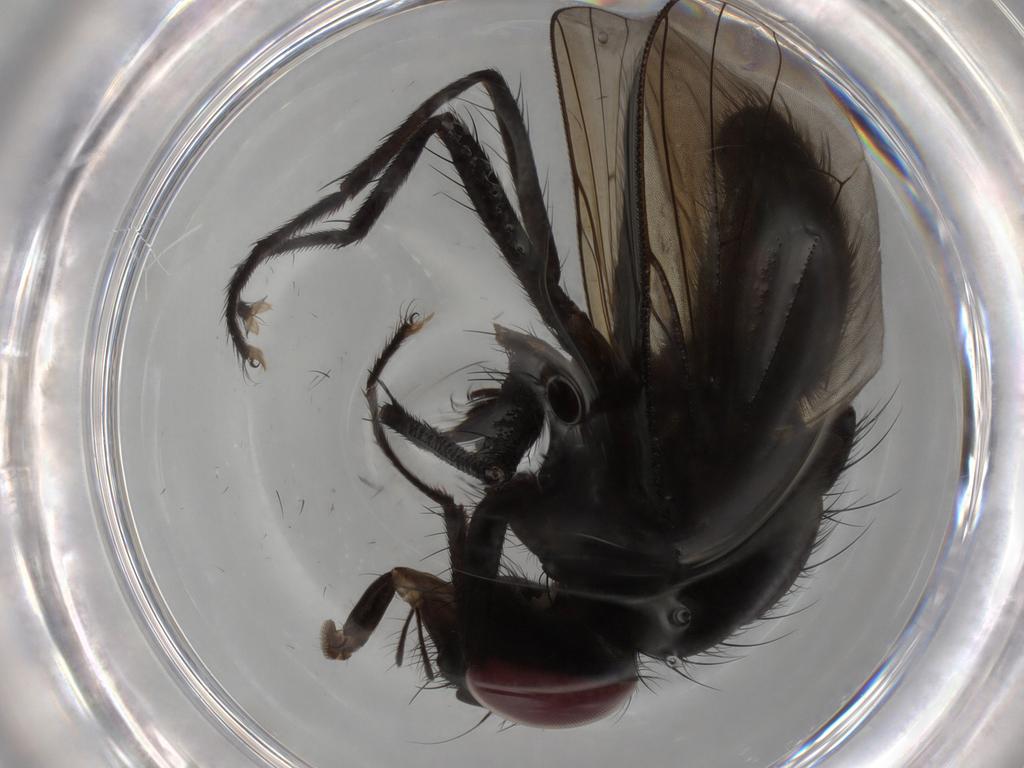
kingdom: Animalia
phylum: Arthropoda
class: Insecta
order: Diptera
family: Muscidae
